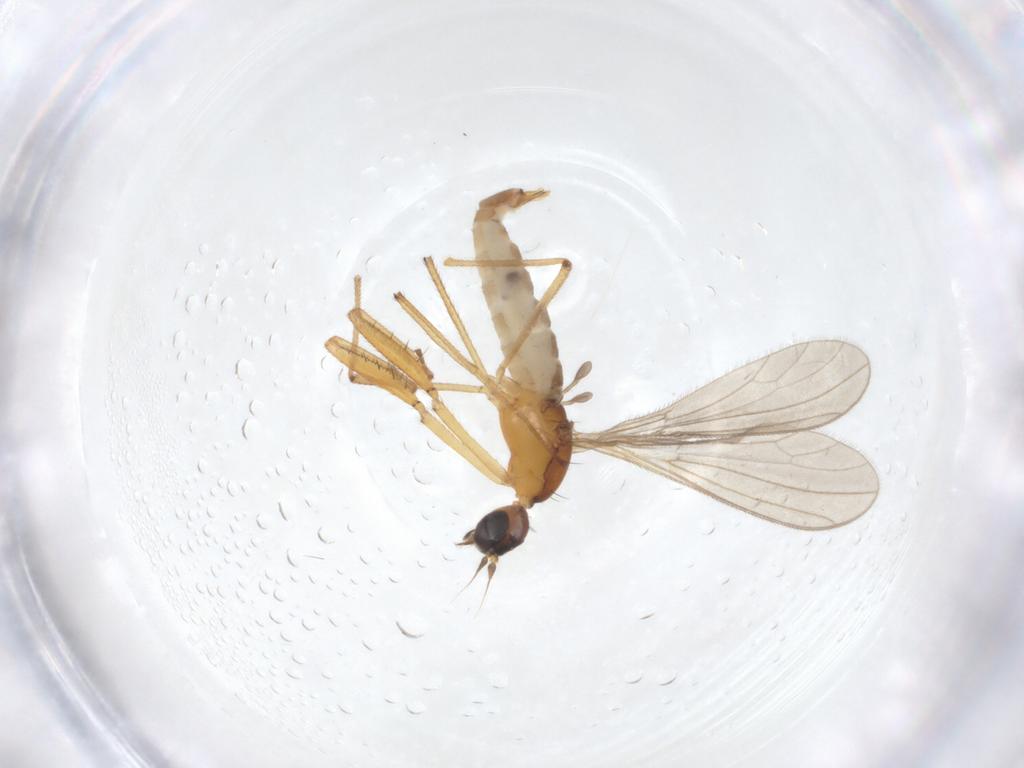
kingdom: Animalia
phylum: Arthropoda
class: Insecta
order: Diptera
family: Empididae
